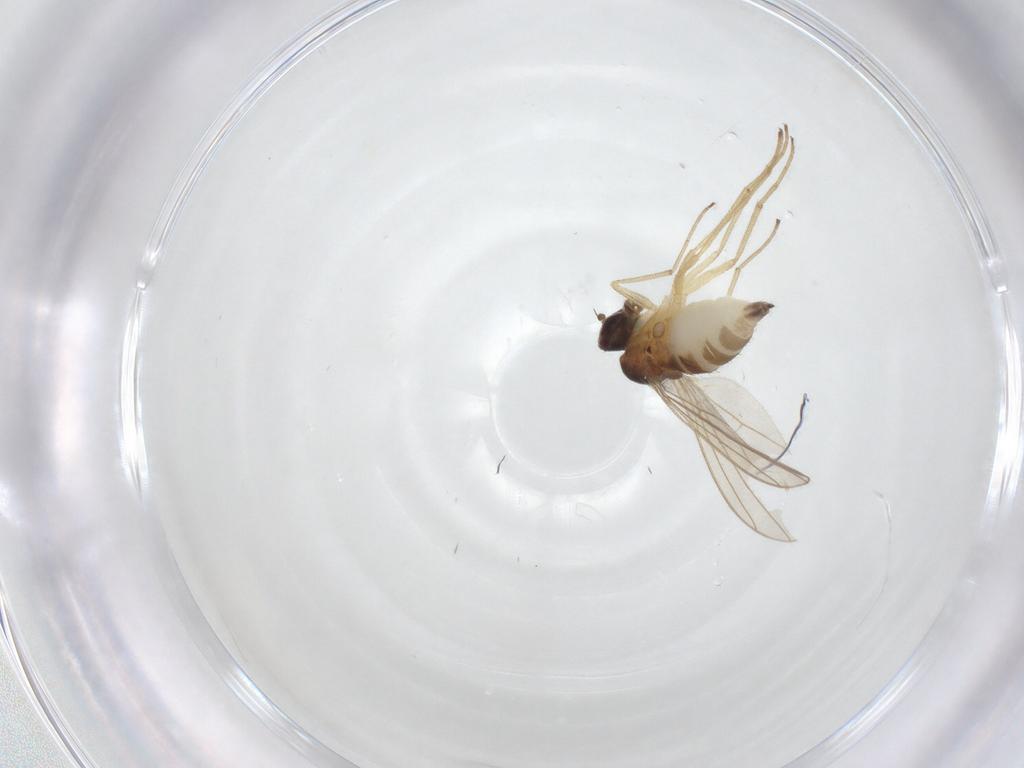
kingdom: Animalia
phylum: Arthropoda
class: Insecta
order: Diptera
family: Dolichopodidae
